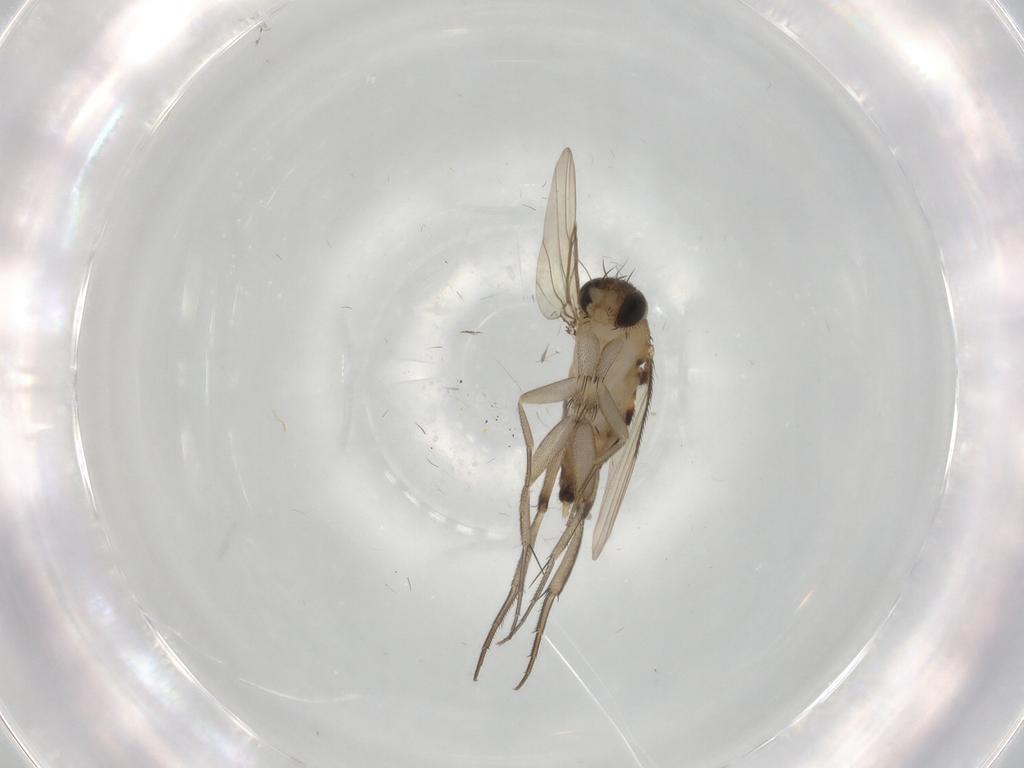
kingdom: Animalia
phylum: Arthropoda
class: Insecta
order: Diptera
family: Phoridae
